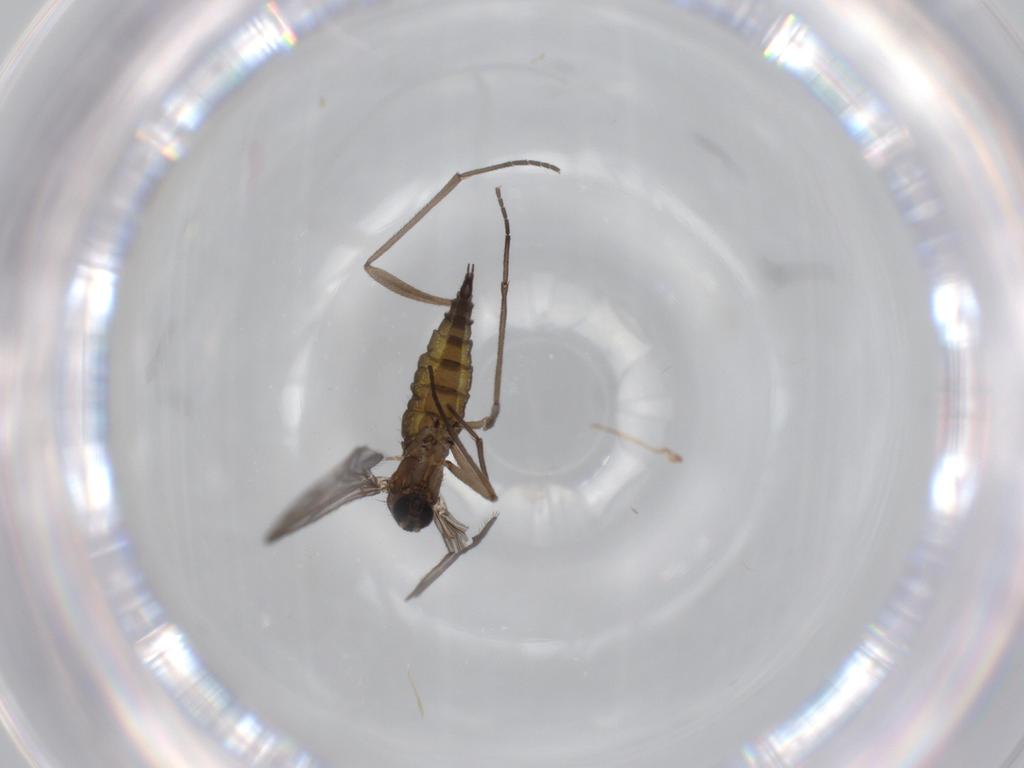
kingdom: Animalia
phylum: Arthropoda
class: Insecta
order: Diptera
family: Sciaridae
